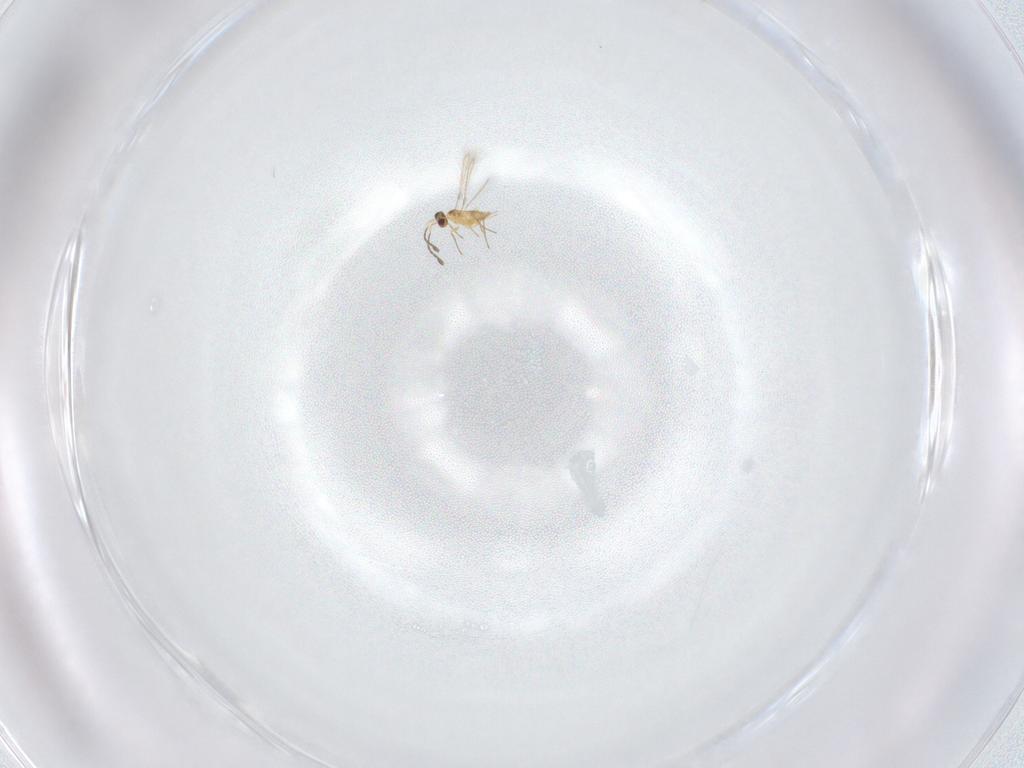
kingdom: Animalia
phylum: Arthropoda
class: Insecta
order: Hymenoptera
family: Mymaridae
